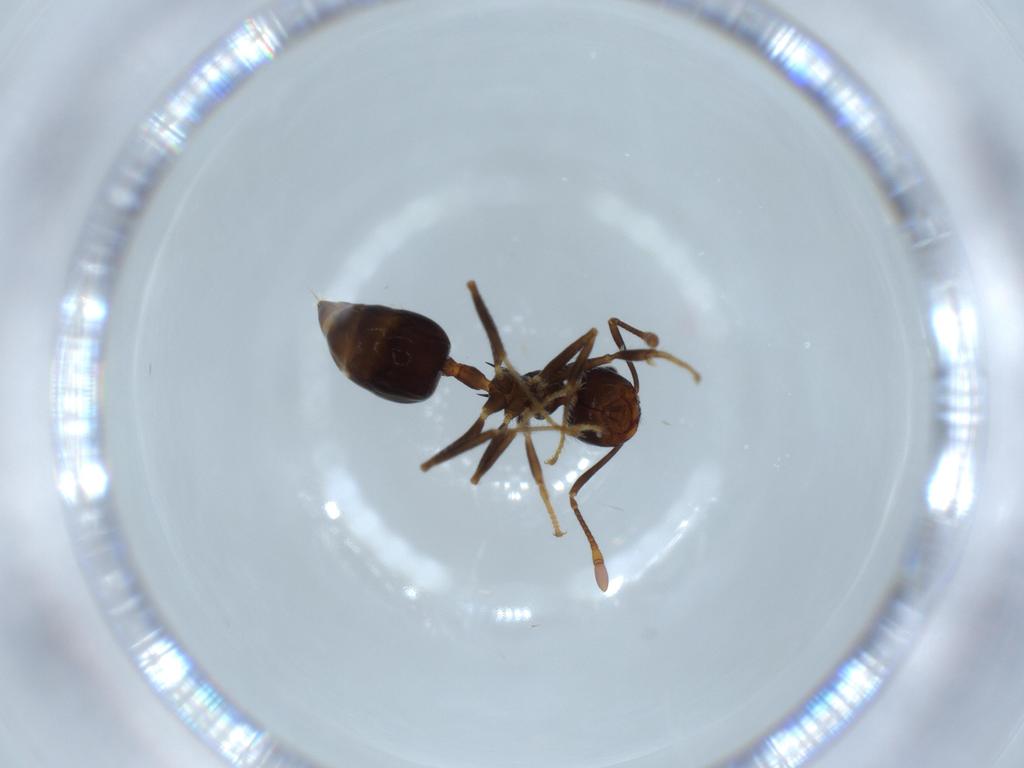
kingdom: Animalia
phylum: Arthropoda
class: Insecta
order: Hymenoptera
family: Formicidae
